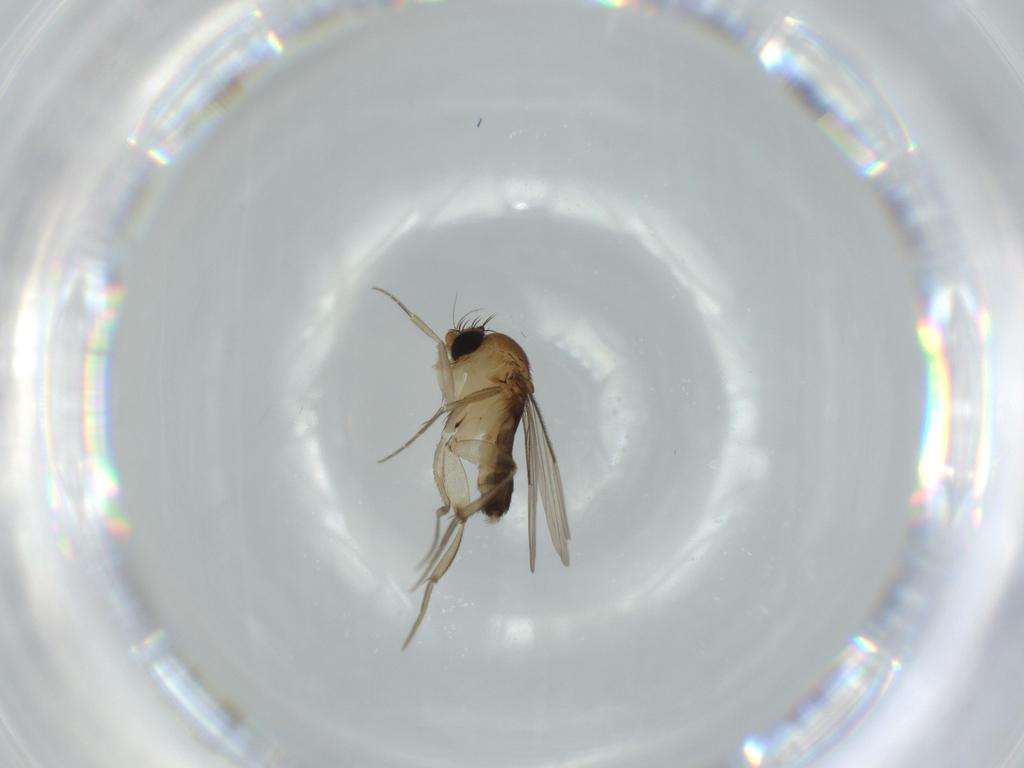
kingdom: Animalia
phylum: Arthropoda
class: Insecta
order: Diptera
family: Phoridae
